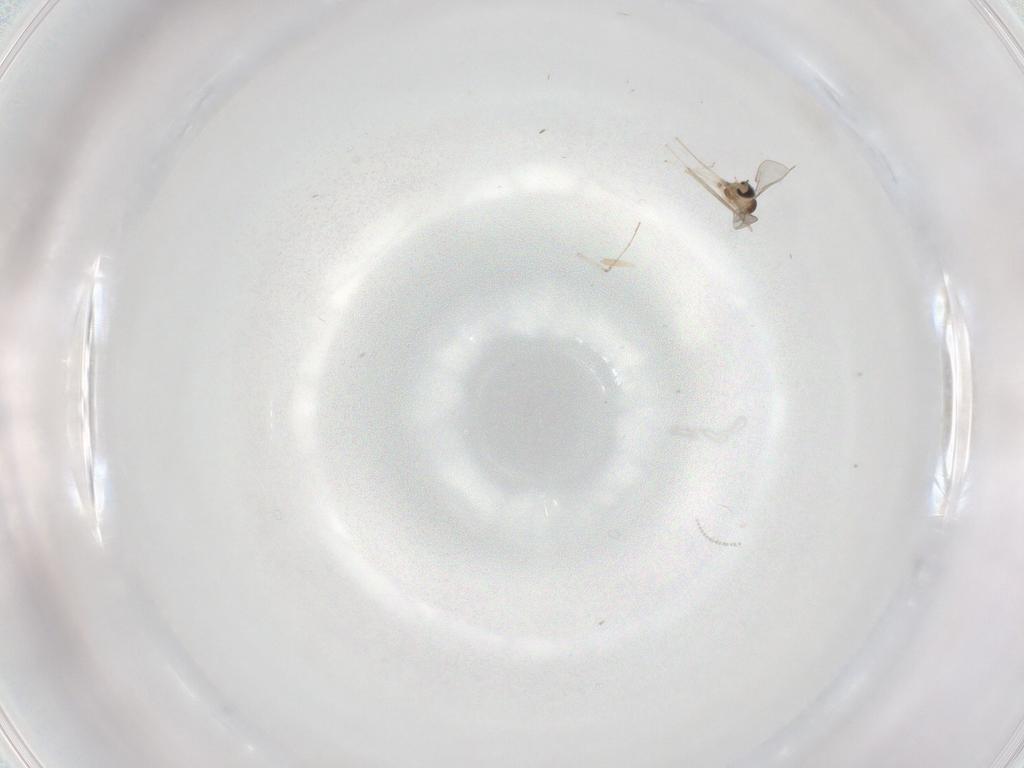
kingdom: Animalia
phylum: Arthropoda
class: Insecta
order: Diptera
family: Cecidomyiidae
